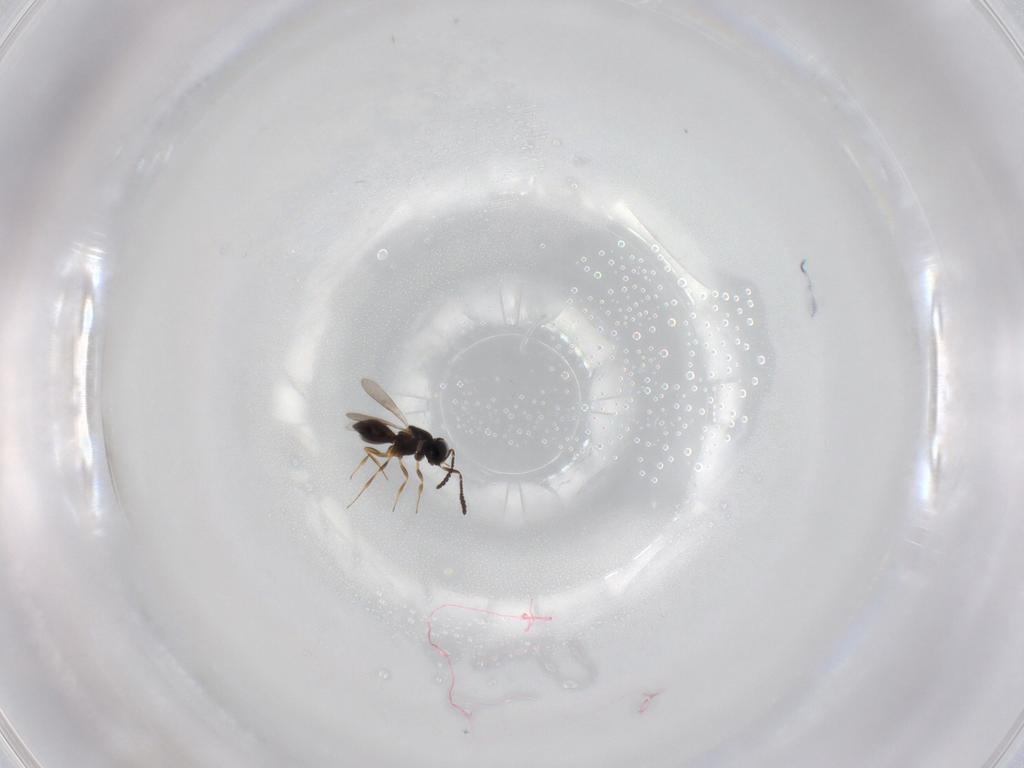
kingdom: Animalia
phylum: Arthropoda
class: Insecta
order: Hymenoptera
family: Scelionidae
